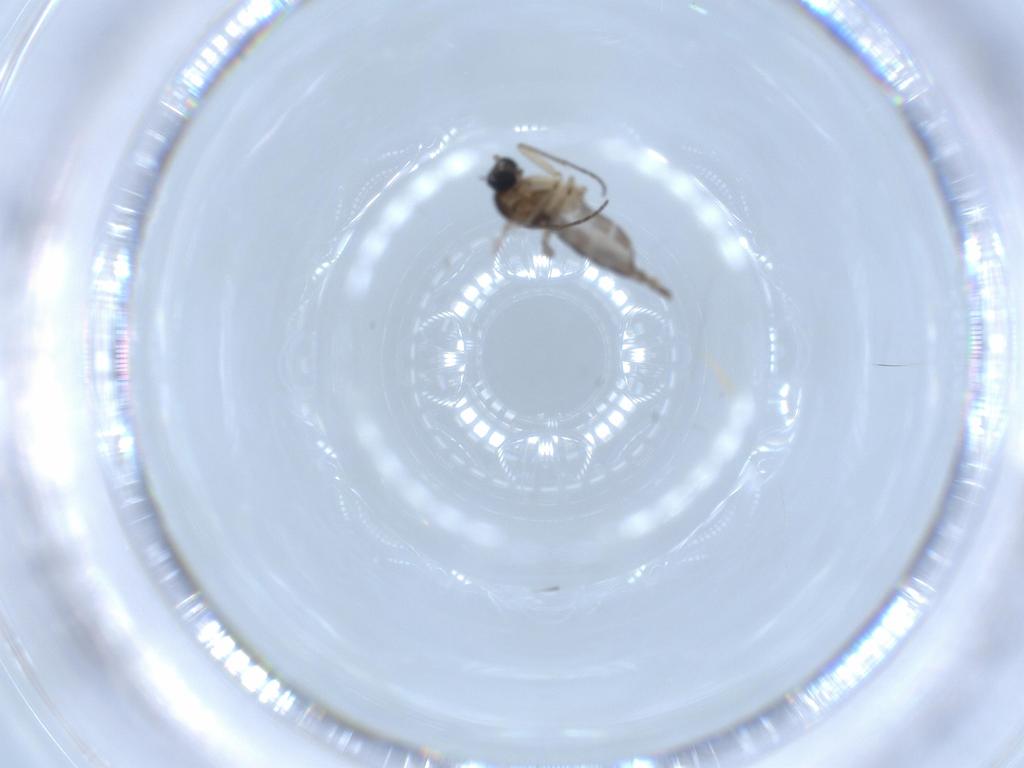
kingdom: Animalia
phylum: Arthropoda
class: Insecta
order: Diptera
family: Sciaridae
